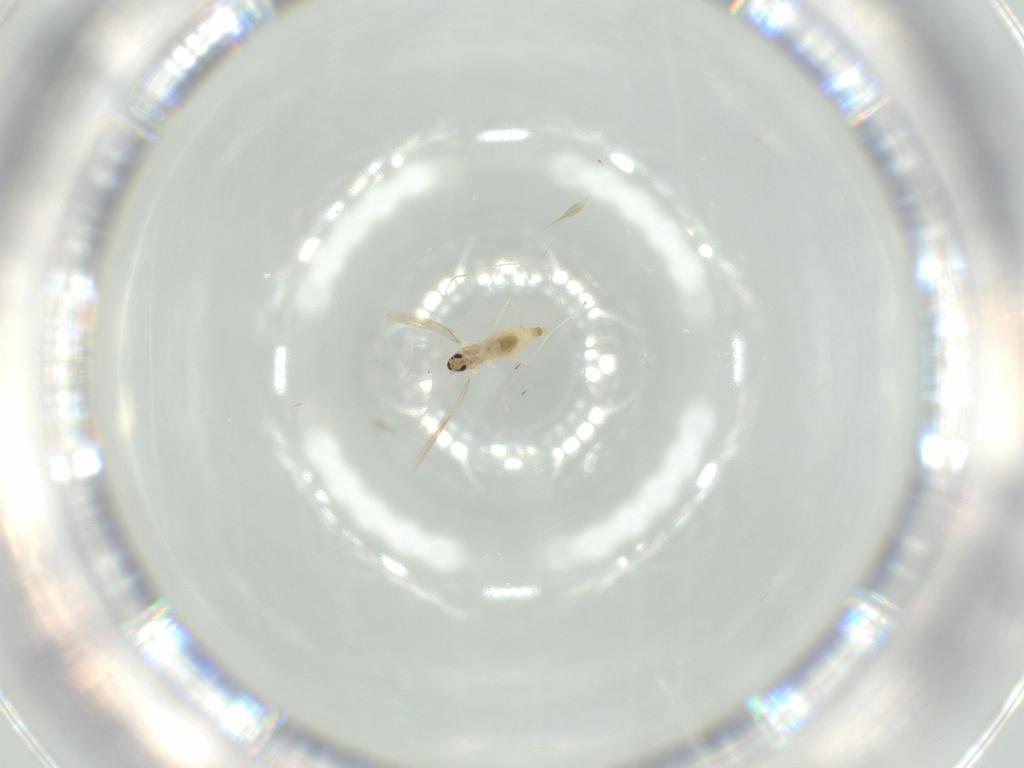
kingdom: Animalia
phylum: Arthropoda
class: Insecta
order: Diptera
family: Cecidomyiidae
